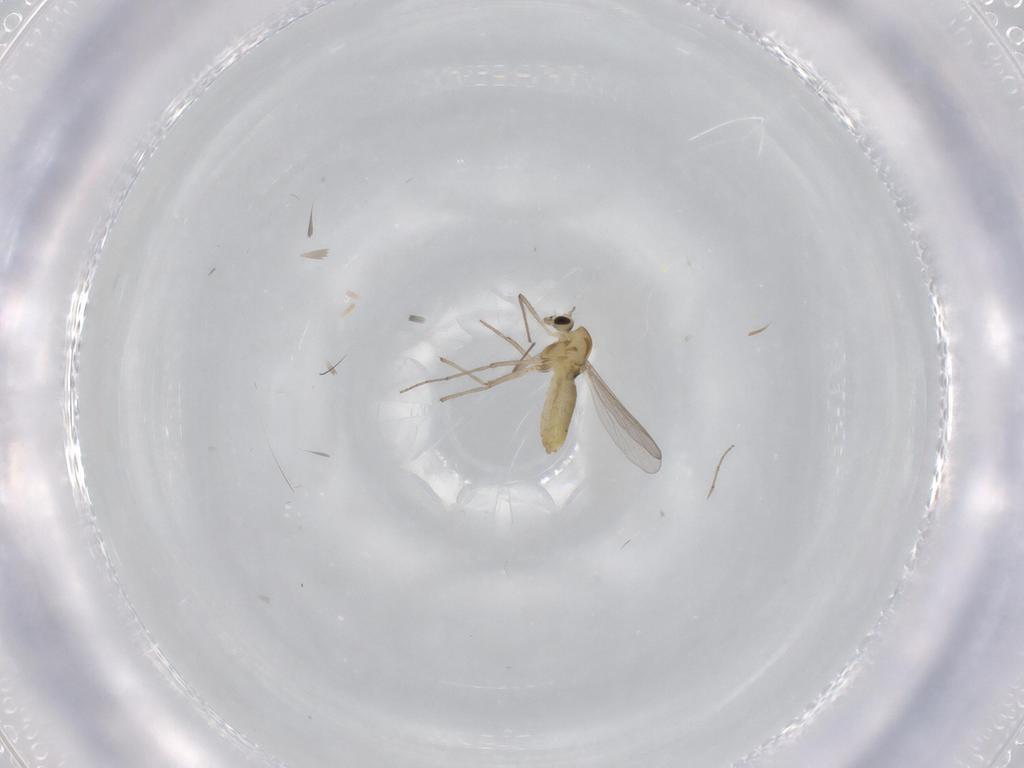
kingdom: Animalia
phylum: Arthropoda
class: Insecta
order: Diptera
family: Chironomidae
